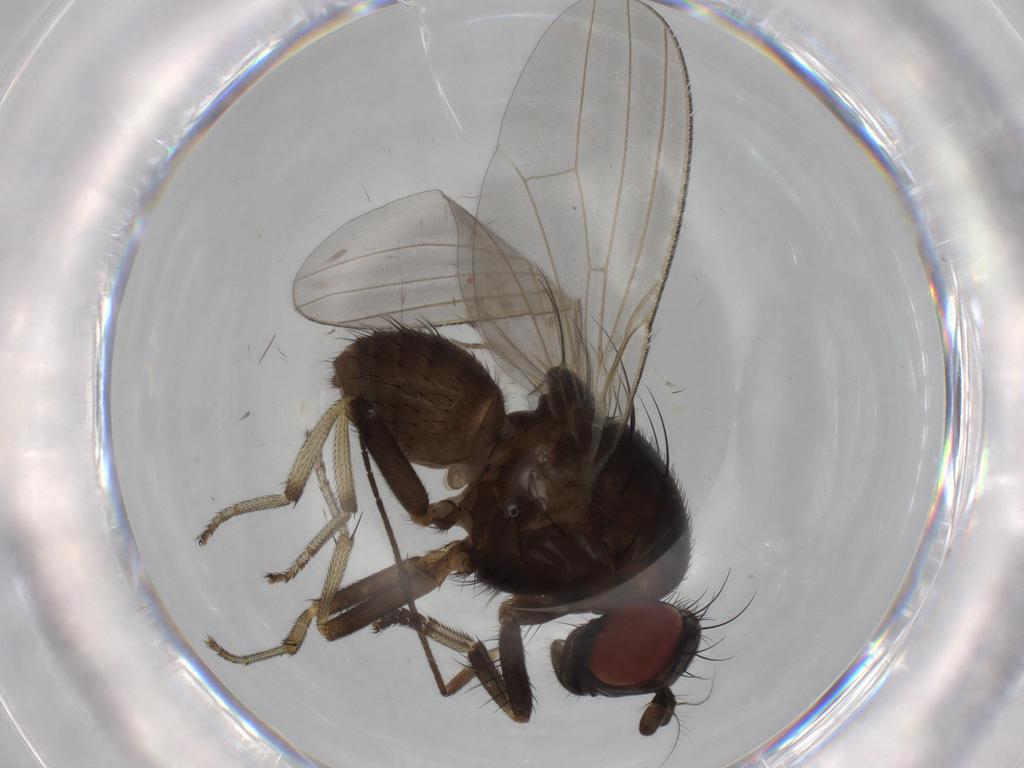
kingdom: Animalia
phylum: Arthropoda
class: Insecta
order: Diptera
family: Sciaridae
